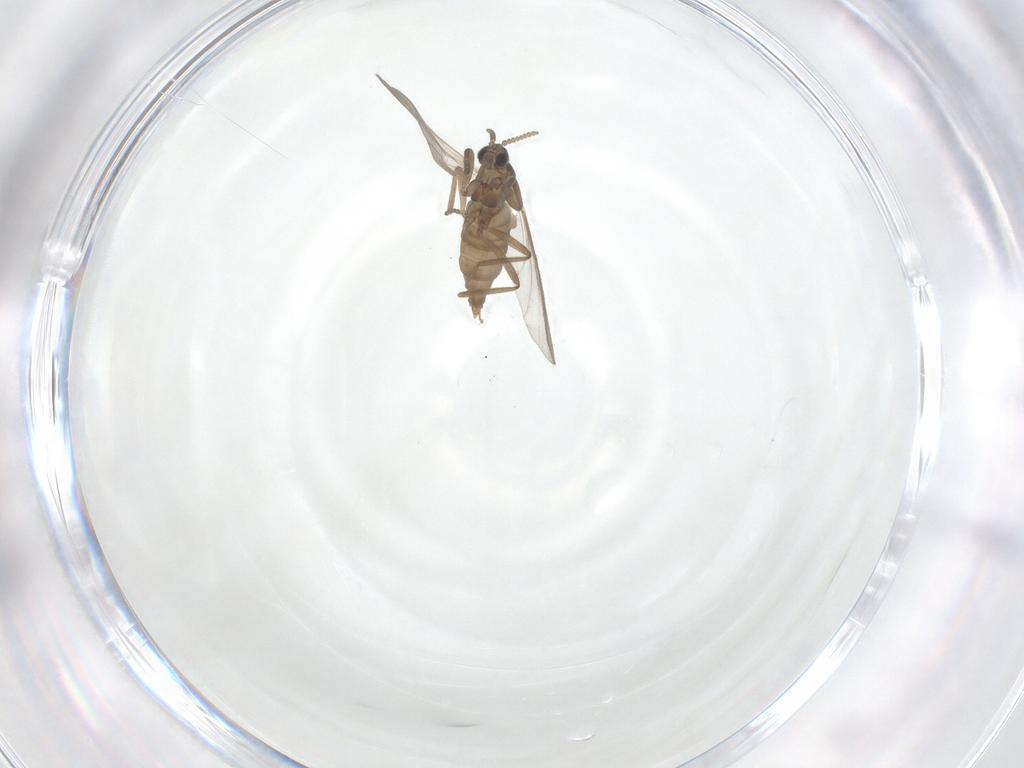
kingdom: Animalia
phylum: Arthropoda
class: Insecta
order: Diptera
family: Cecidomyiidae
